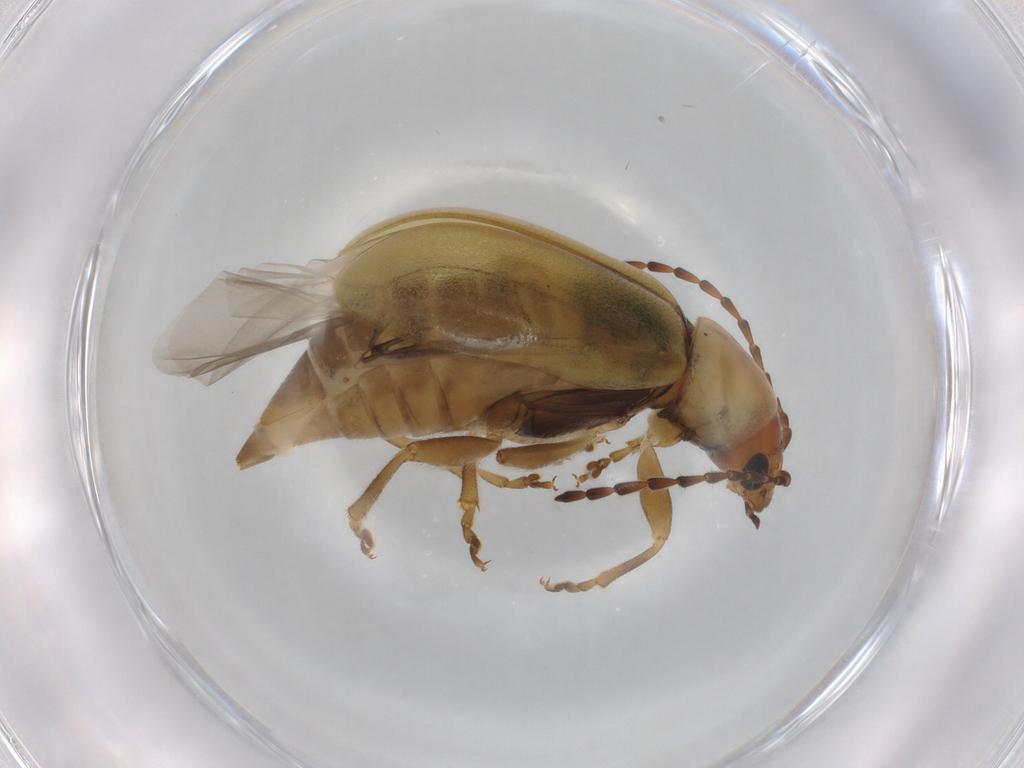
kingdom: Animalia
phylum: Arthropoda
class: Insecta
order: Coleoptera
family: Chrysomelidae
